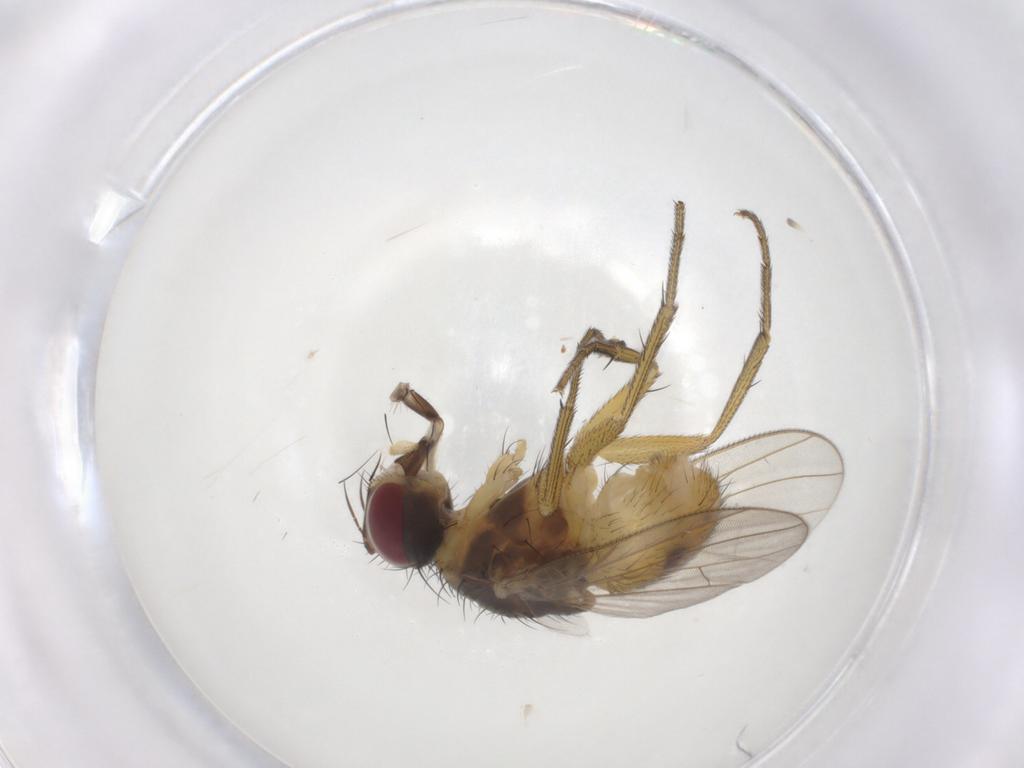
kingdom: Animalia
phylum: Arthropoda
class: Insecta
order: Diptera
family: Muscidae
